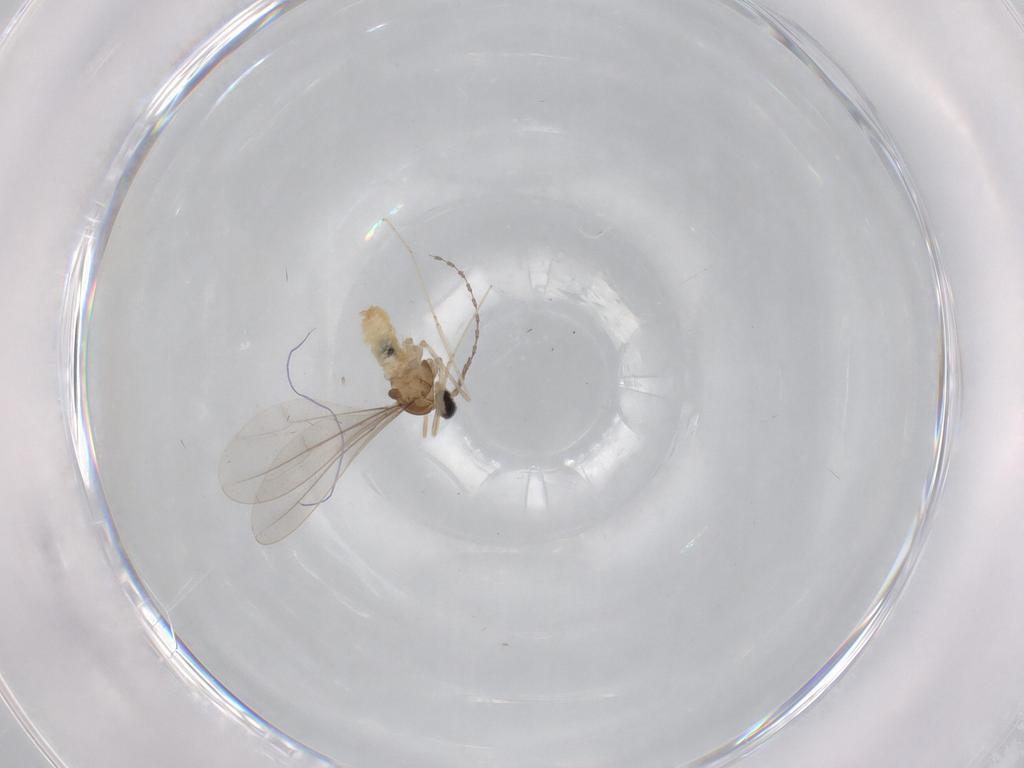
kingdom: Animalia
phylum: Arthropoda
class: Insecta
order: Diptera
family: Cecidomyiidae
